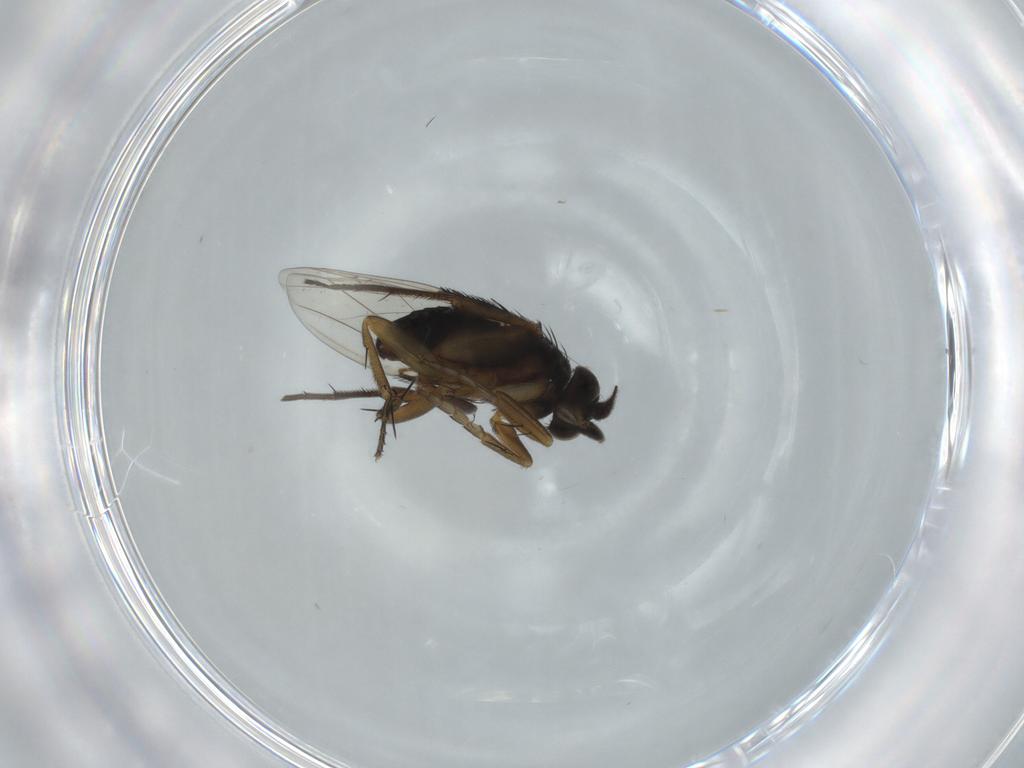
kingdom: Animalia
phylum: Arthropoda
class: Insecta
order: Diptera
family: Phoridae
